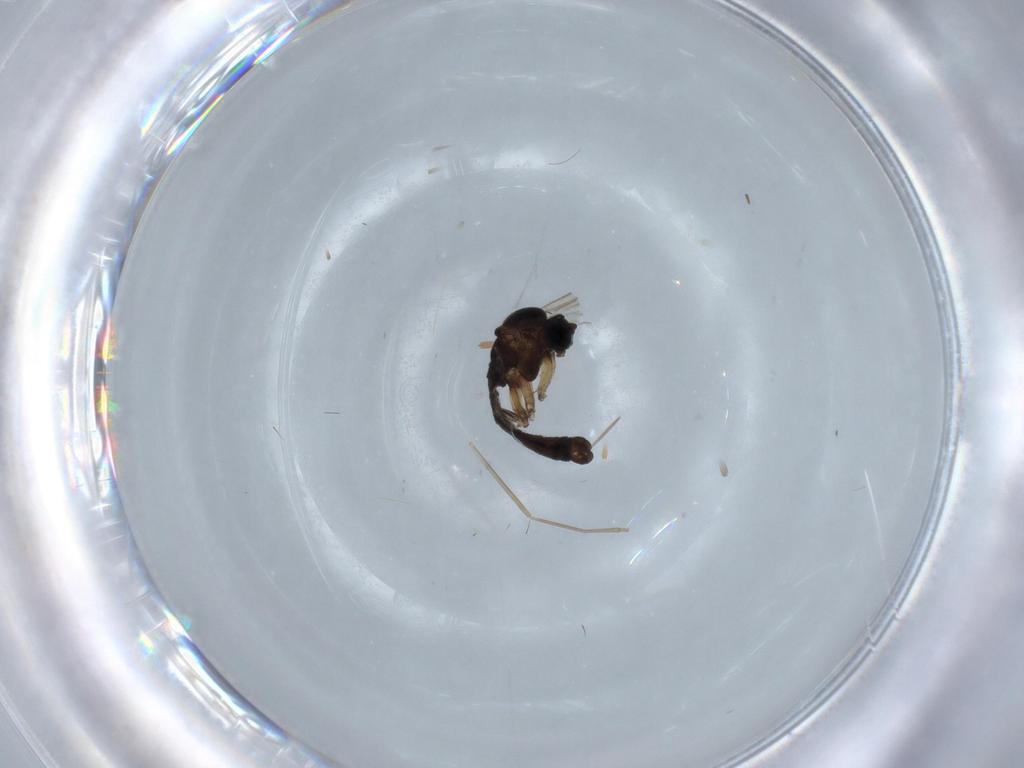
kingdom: Animalia
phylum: Arthropoda
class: Insecta
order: Diptera
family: Sciaridae
